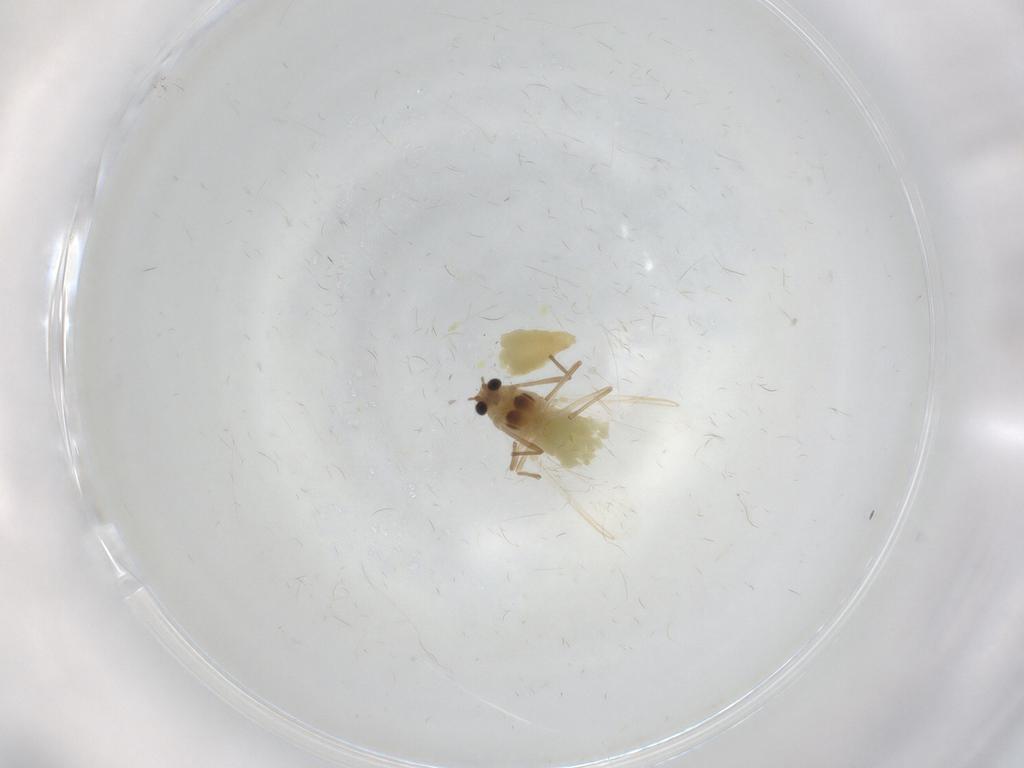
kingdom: Animalia
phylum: Arthropoda
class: Insecta
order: Diptera
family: Chironomidae
